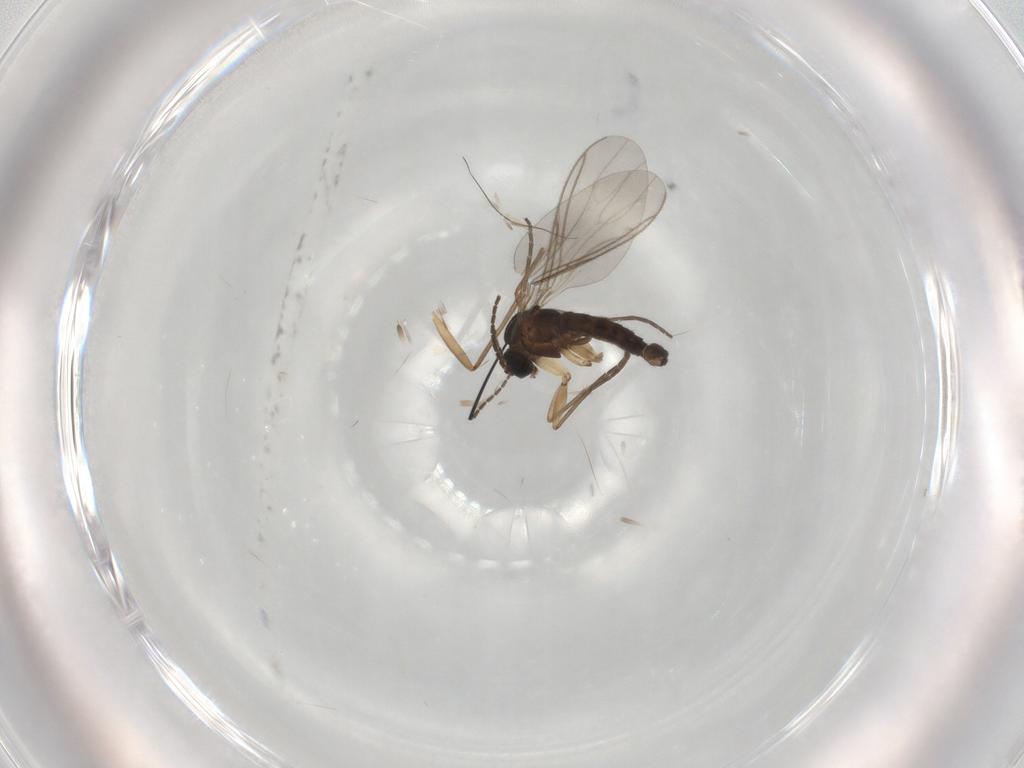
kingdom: Animalia
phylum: Arthropoda
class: Insecta
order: Diptera
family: Sciaridae
